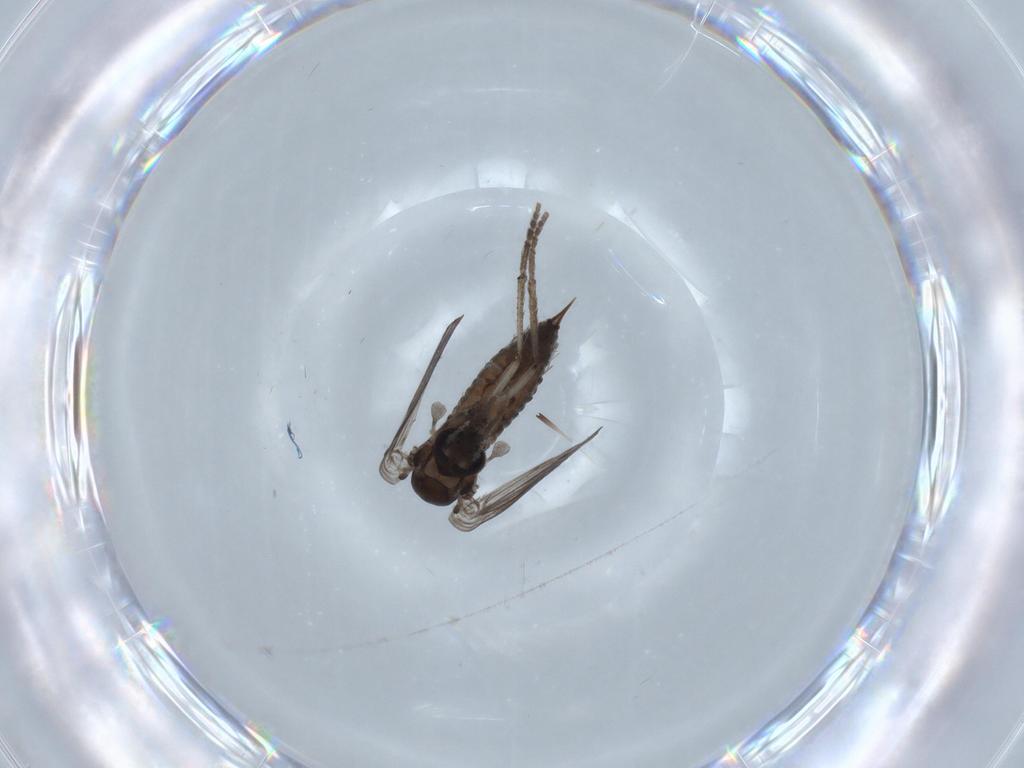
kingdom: Animalia
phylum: Arthropoda
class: Insecta
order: Diptera
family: Psychodidae
